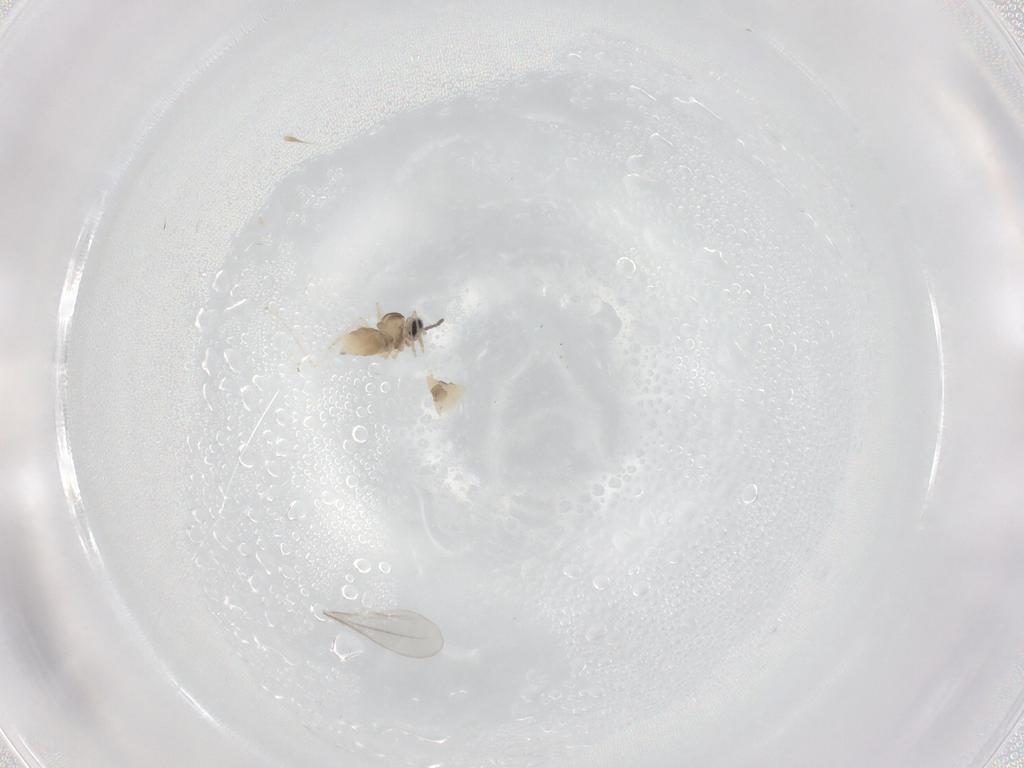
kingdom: Animalia
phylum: Arthropoda
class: Insecta
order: Diptera
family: Cecidomyiidae
